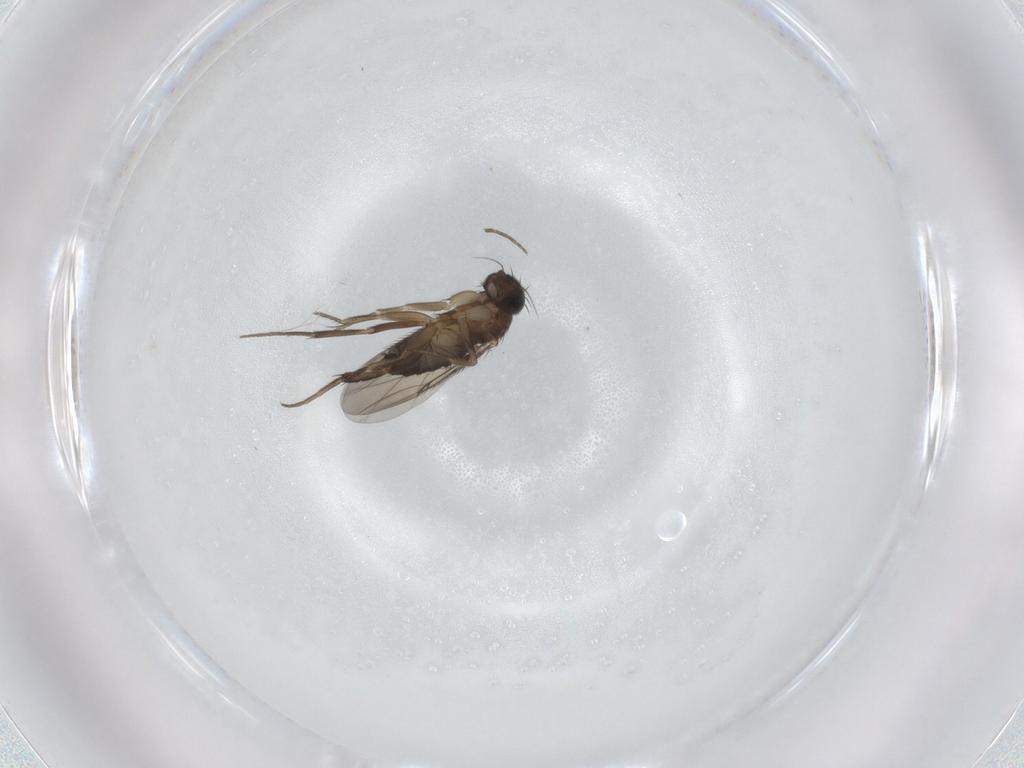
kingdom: Animalia
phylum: Arthropoda
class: Insecta
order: Diptera
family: Phoridae
